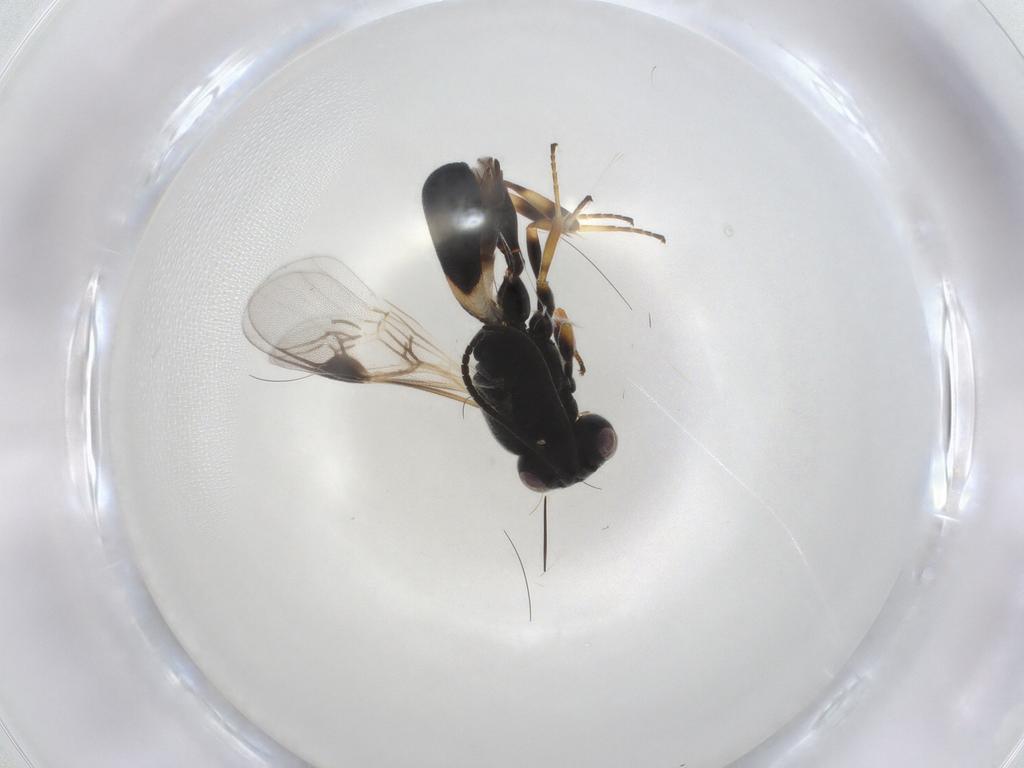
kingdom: Animalia
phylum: Arthropoda
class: Insecta
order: Hymenoptera
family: Braconidae
